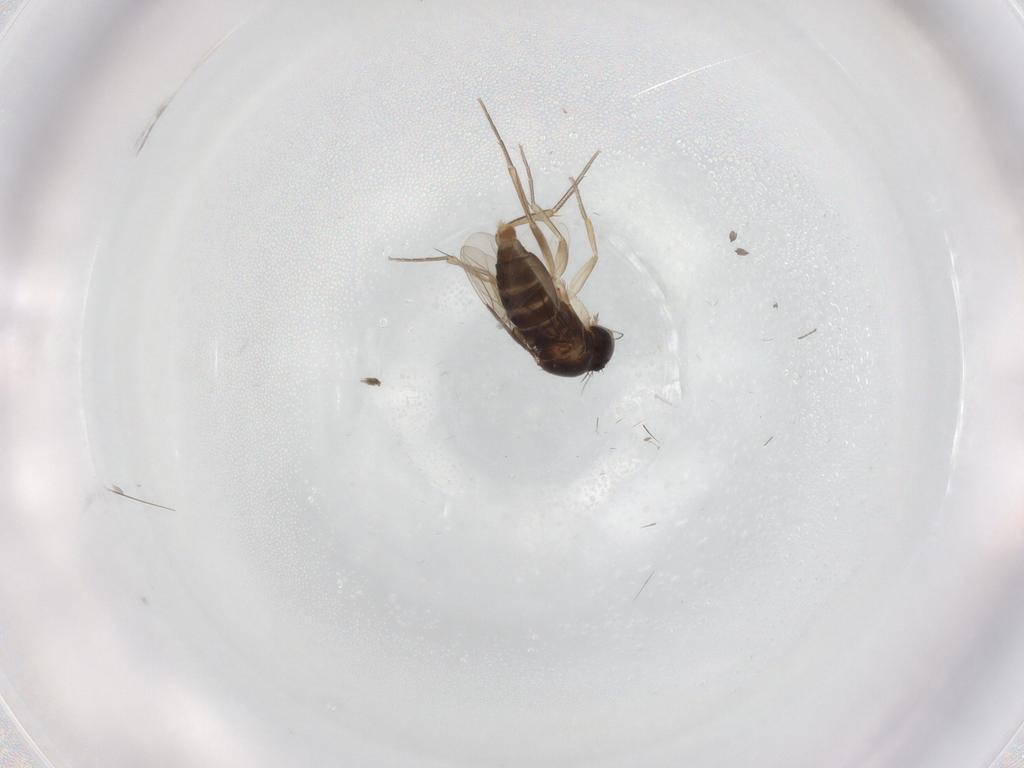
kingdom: Animalia
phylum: Arthropoda
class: Insecta
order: Diptera
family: Phoridae
